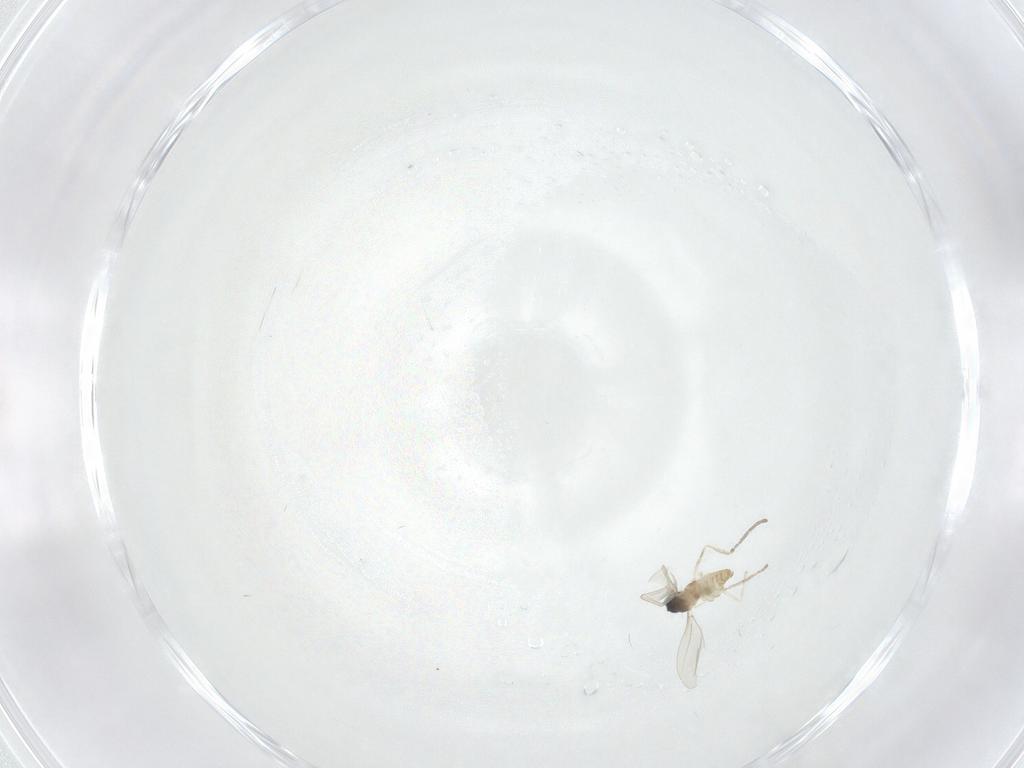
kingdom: Animalia
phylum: Arthropoda
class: Insecta
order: Diptera
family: Cecidomyiidae
